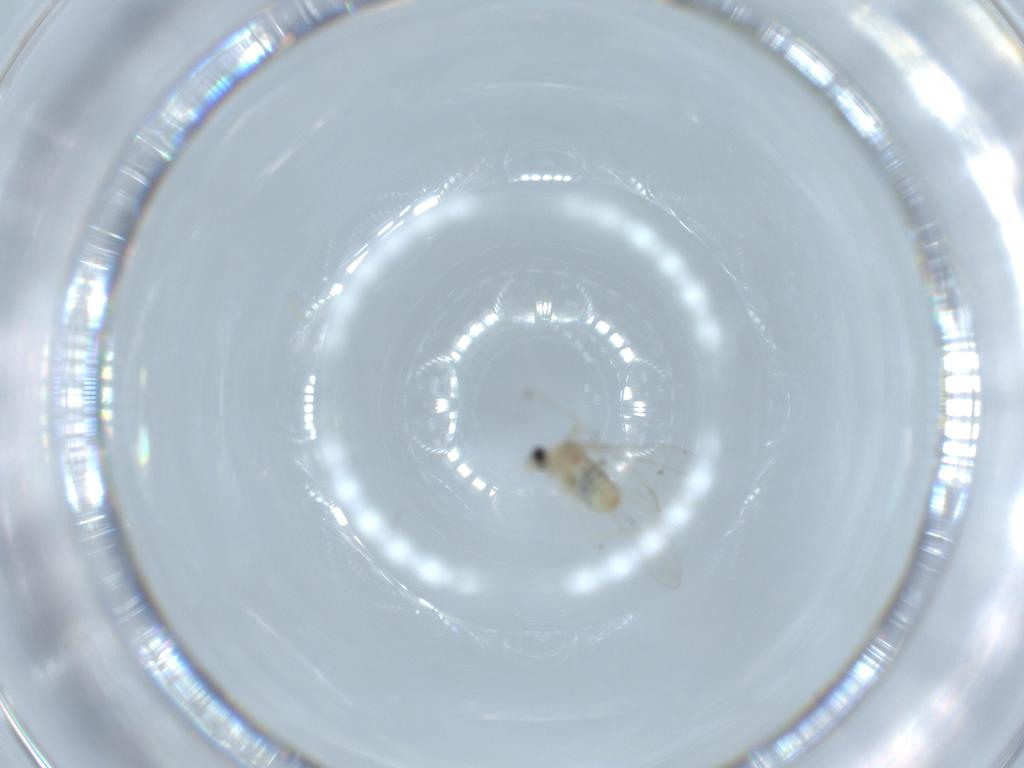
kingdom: Animalia
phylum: Arthropoda
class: Insecta
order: Diptera
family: Cecidomyiidae
